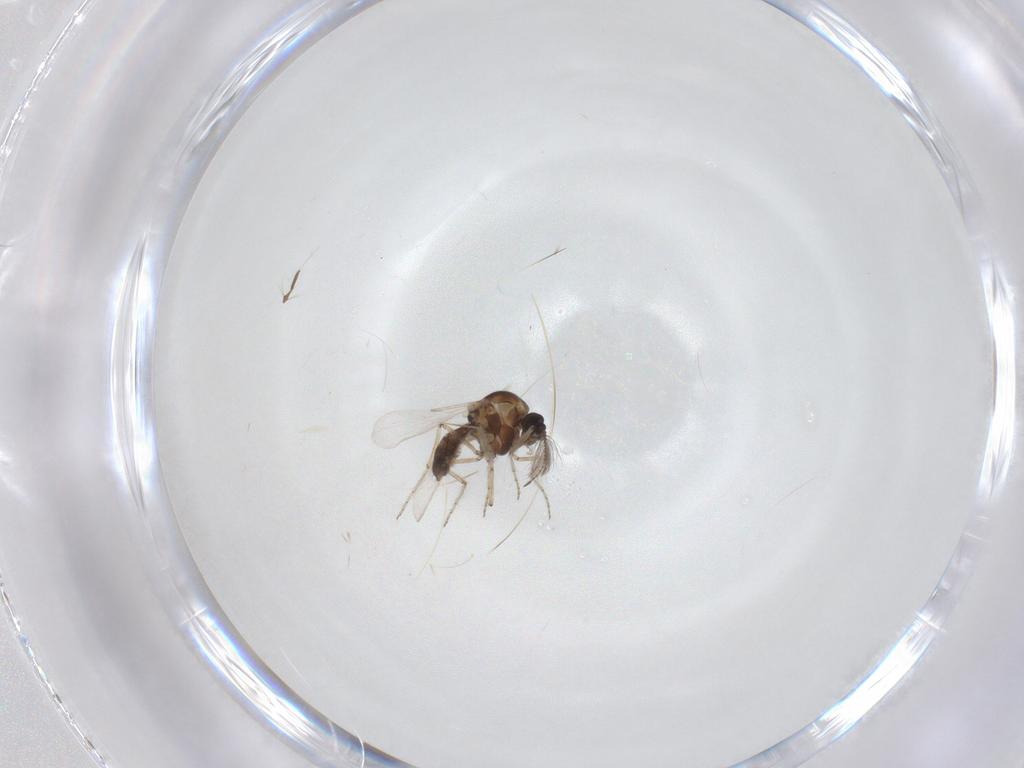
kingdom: Animalia
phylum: Arthropoda
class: Insecta
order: Diptera
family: Ceratopogonidae
